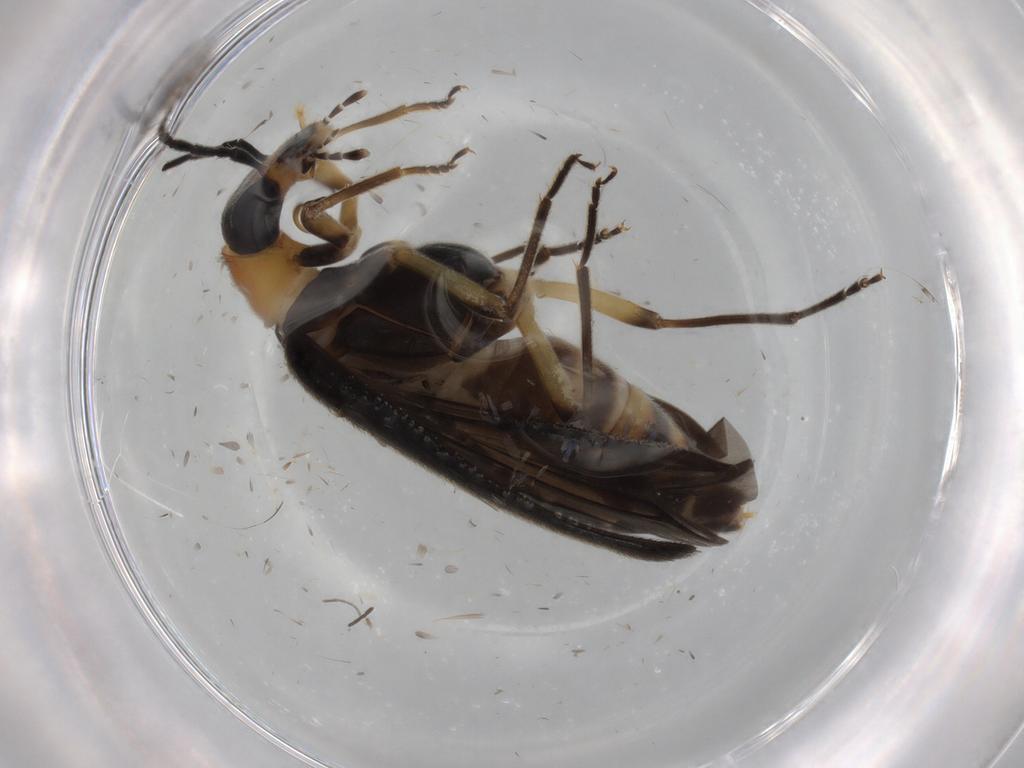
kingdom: Animalia
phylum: Arthropoda
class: Insecta
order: Coleoptera
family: Oedemeridae
